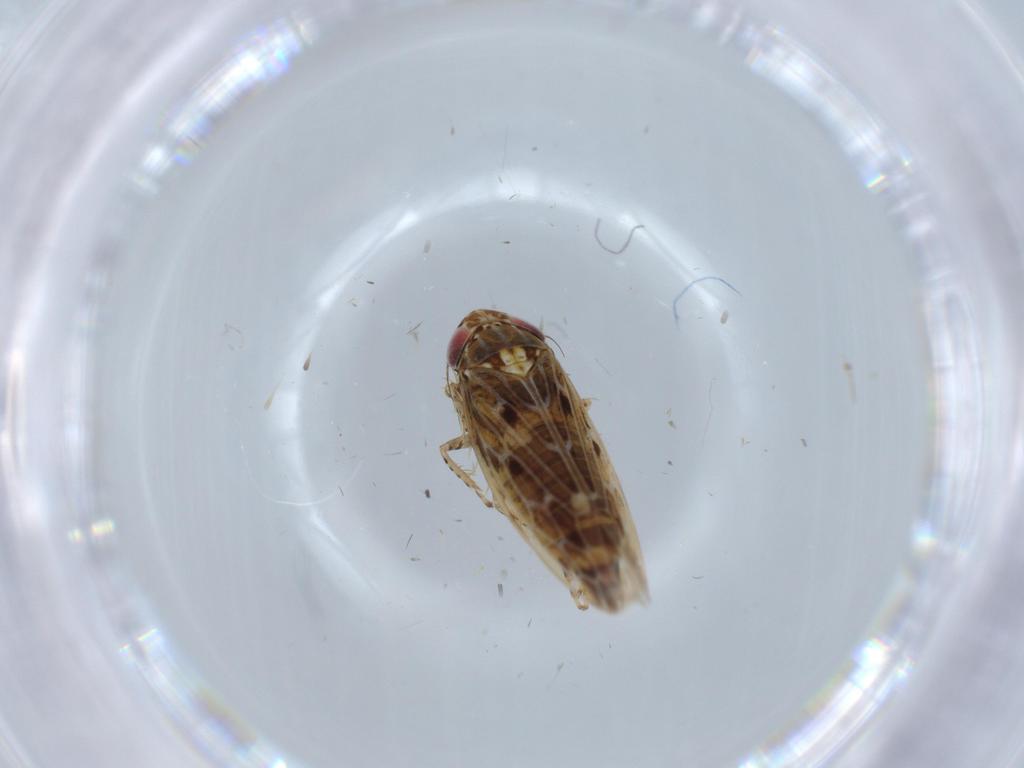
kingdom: Animalia
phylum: Arthropoda
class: Insecta
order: Hemiptera
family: Cicadellidae
